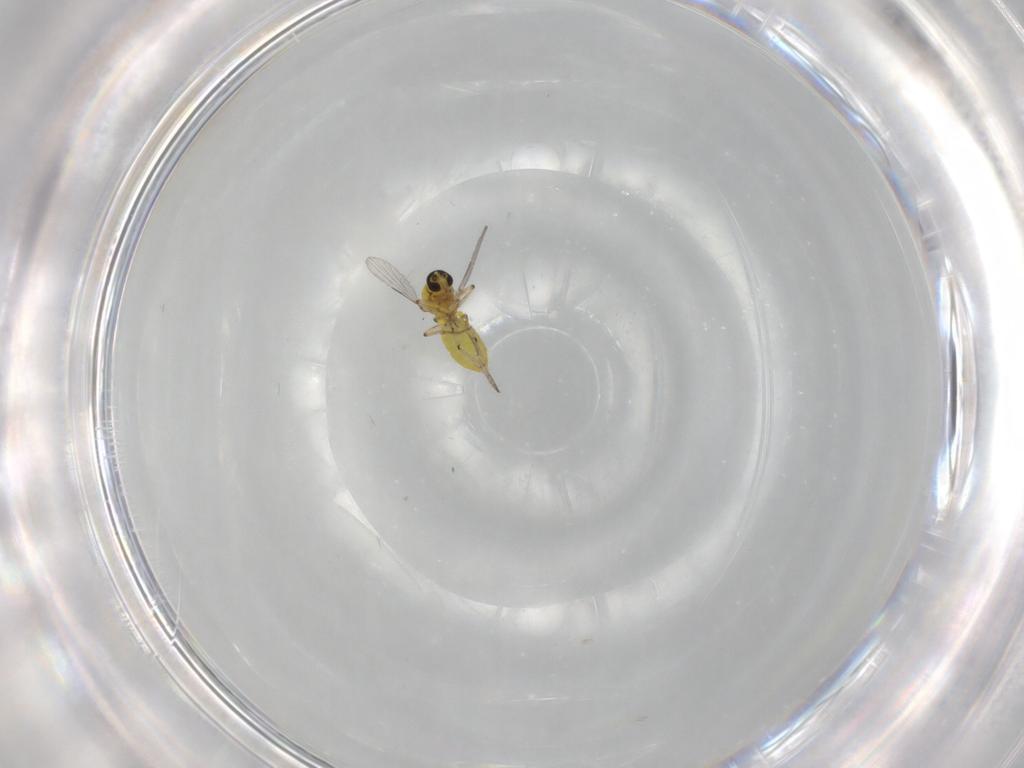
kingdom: Animalia
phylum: Arthropoda
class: Insecta
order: Diptera
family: Ceratopogonidae
